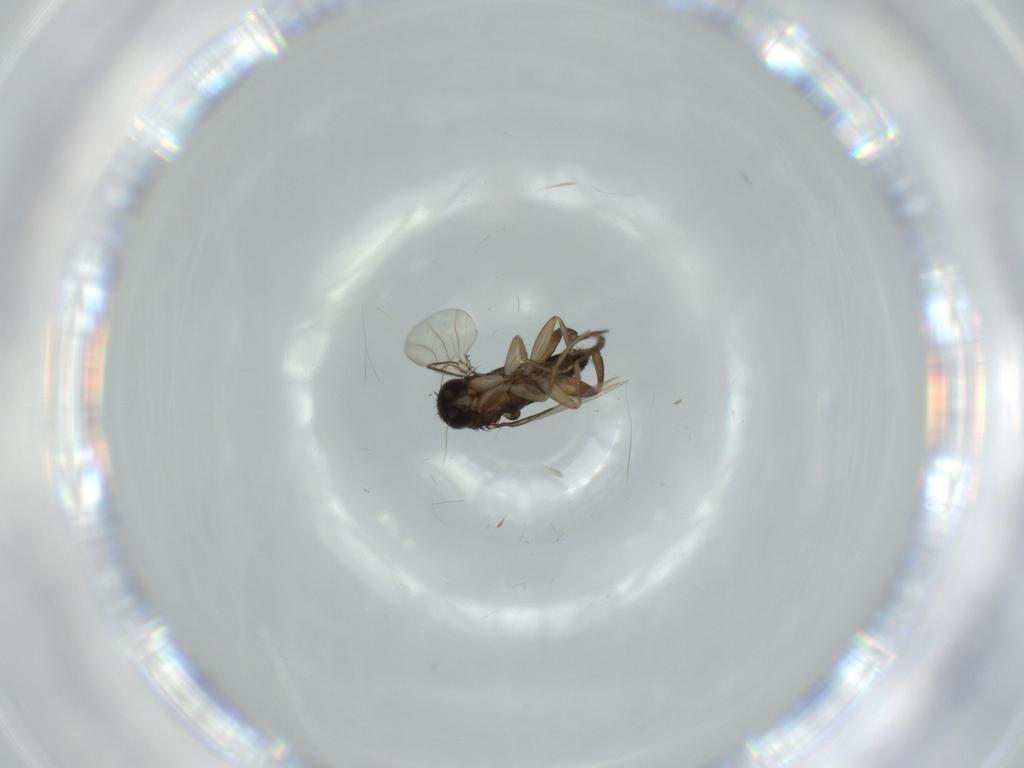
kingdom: Animalia
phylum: Arthropoda
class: Insecta
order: Diptera
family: Phoridae
